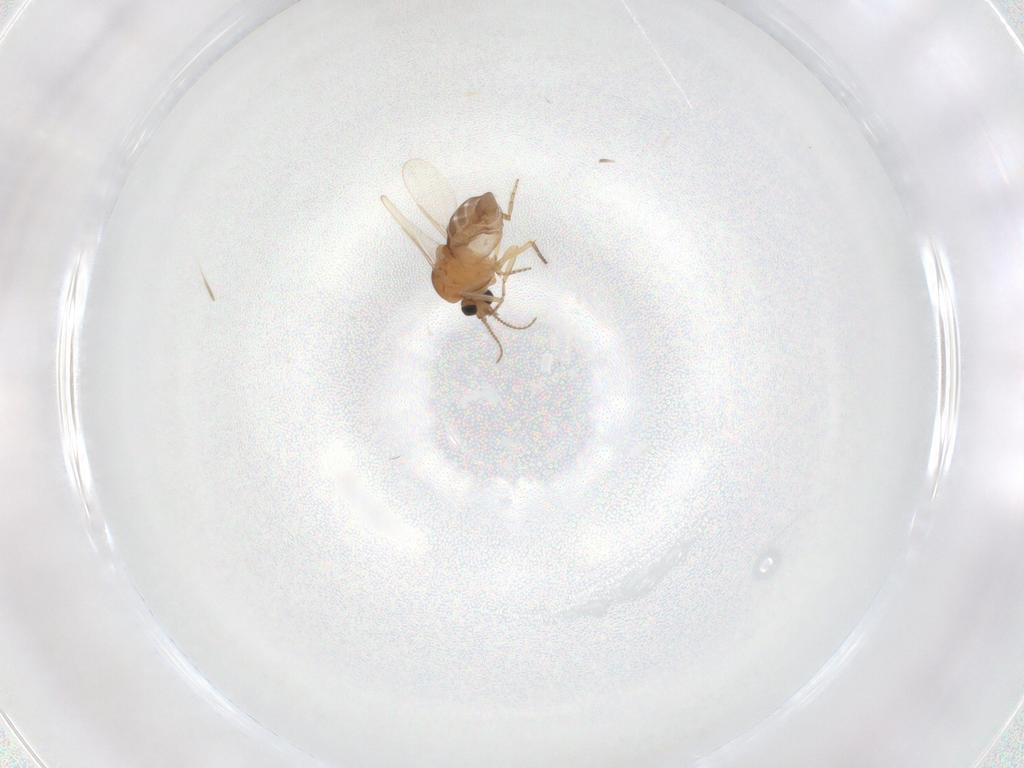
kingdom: Animalia
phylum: Arthropoda
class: Insecta
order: Diptera
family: Ceratopogonidae
